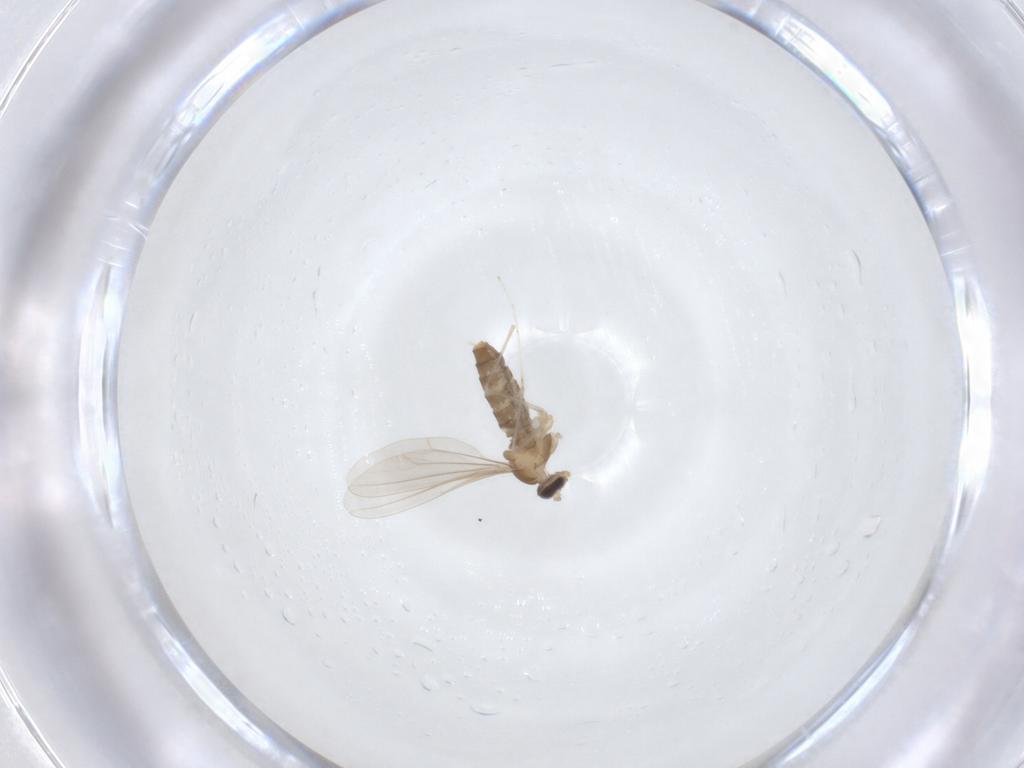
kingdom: Animalia
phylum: Arthropoda
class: Insecta
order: Diptera
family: Cecidomyiidae
